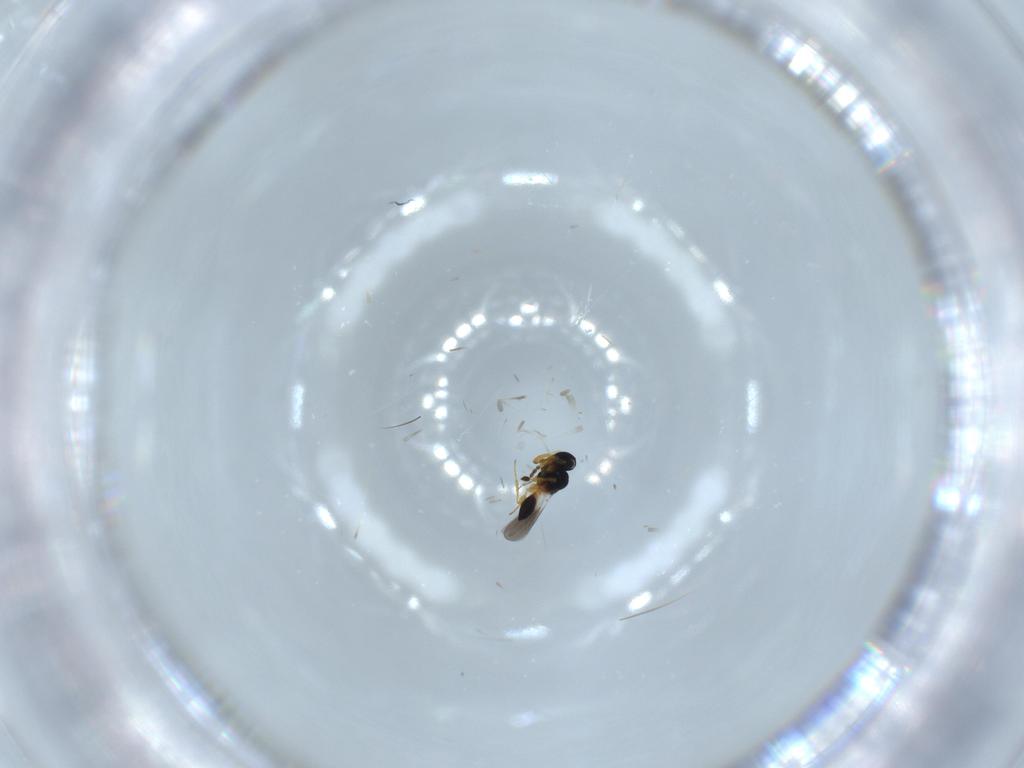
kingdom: Animalia
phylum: Arthropoda
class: Insecta
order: Hymenoptera
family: Platygastridae
